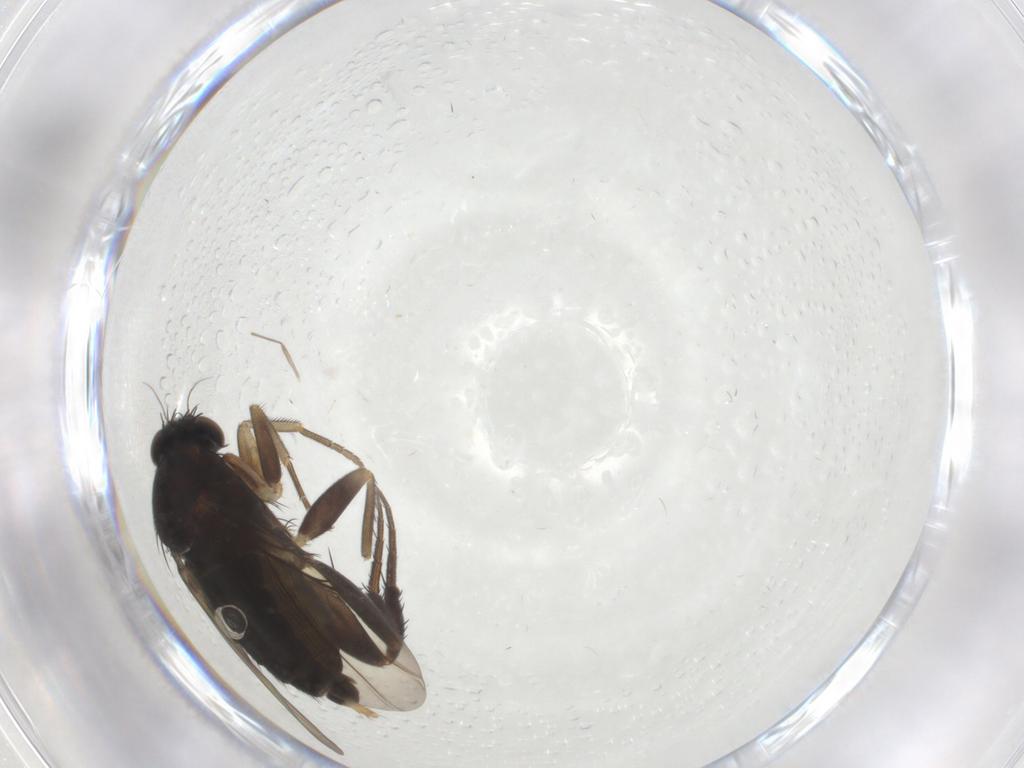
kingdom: Animalia
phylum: Arthropoda
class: Insecta
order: Diptera
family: Phoridae
